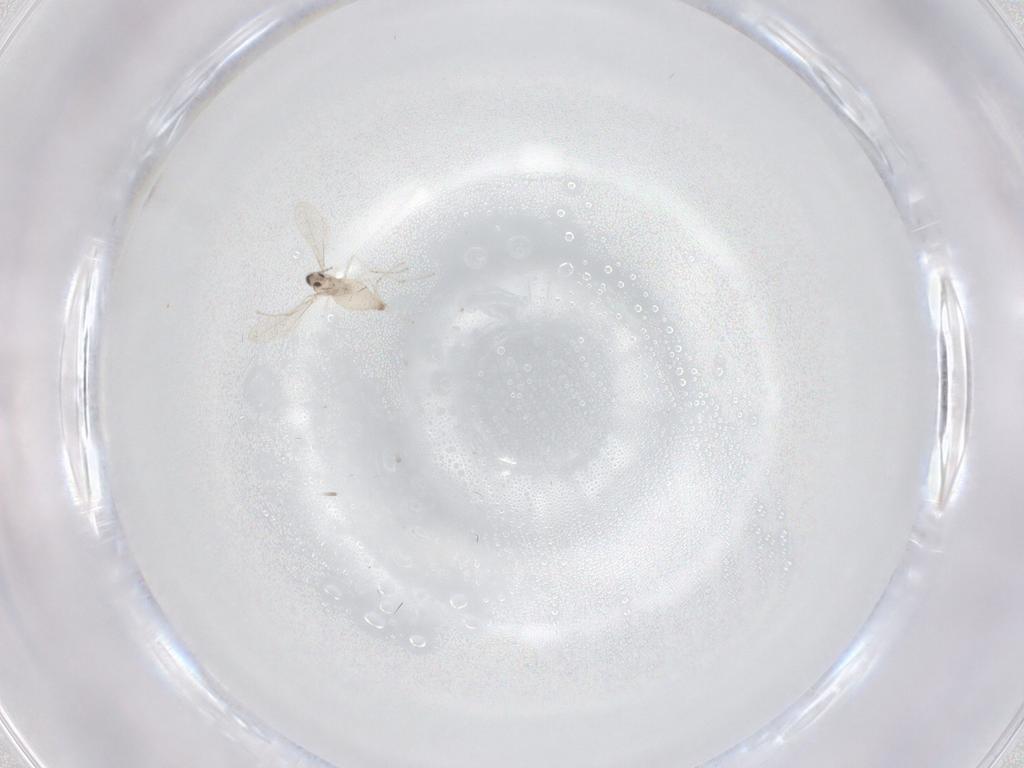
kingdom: Animalia
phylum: Arthropoda
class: Insecta
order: Diptera
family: Cecidomyiidae
